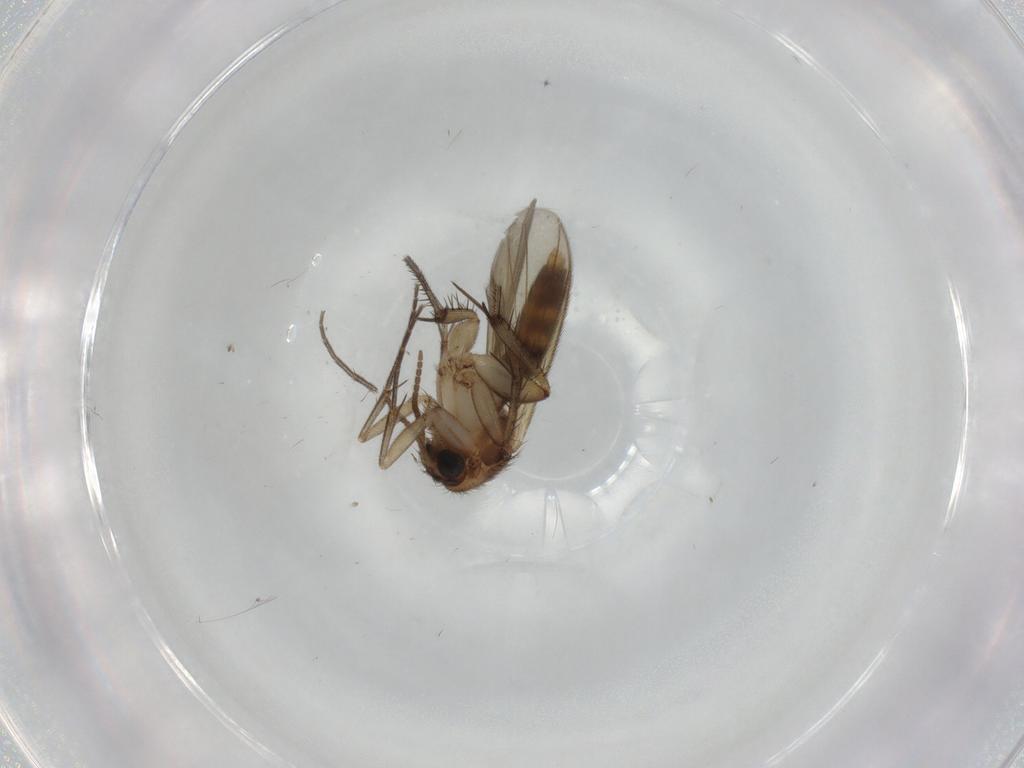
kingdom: Animalia
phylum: Arthropoda
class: Insecta
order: Diptera
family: Mycetophilidae
